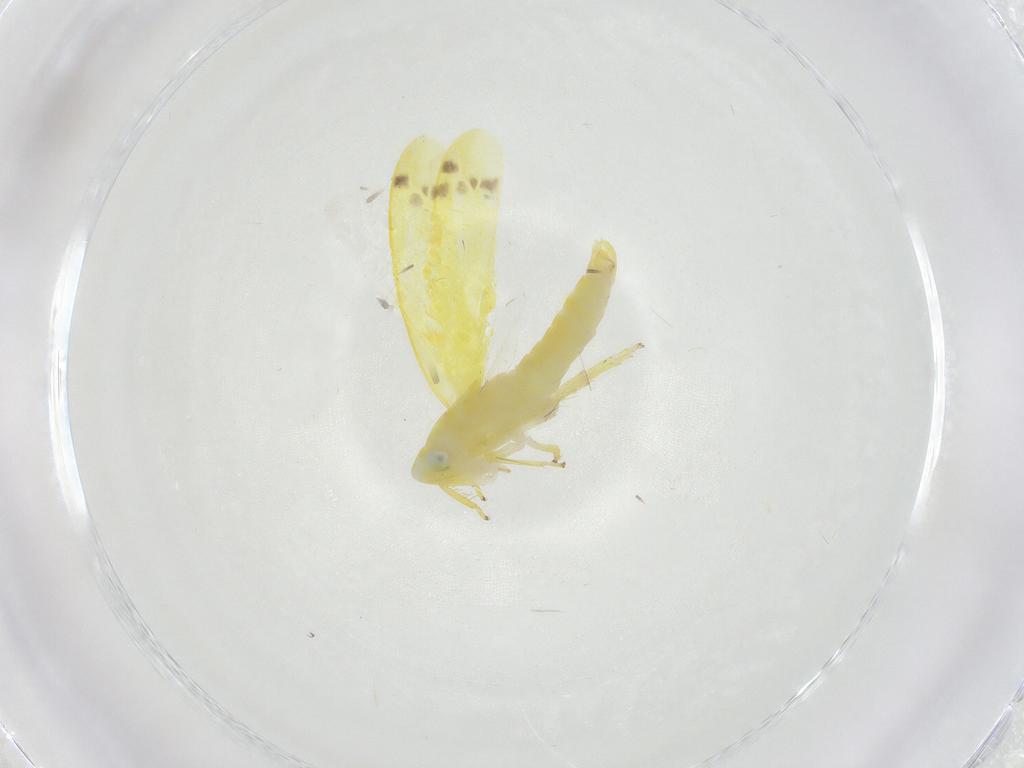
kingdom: Animalia
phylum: Arthropoda
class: Insecta
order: Hemiptera
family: Cicadellidae
